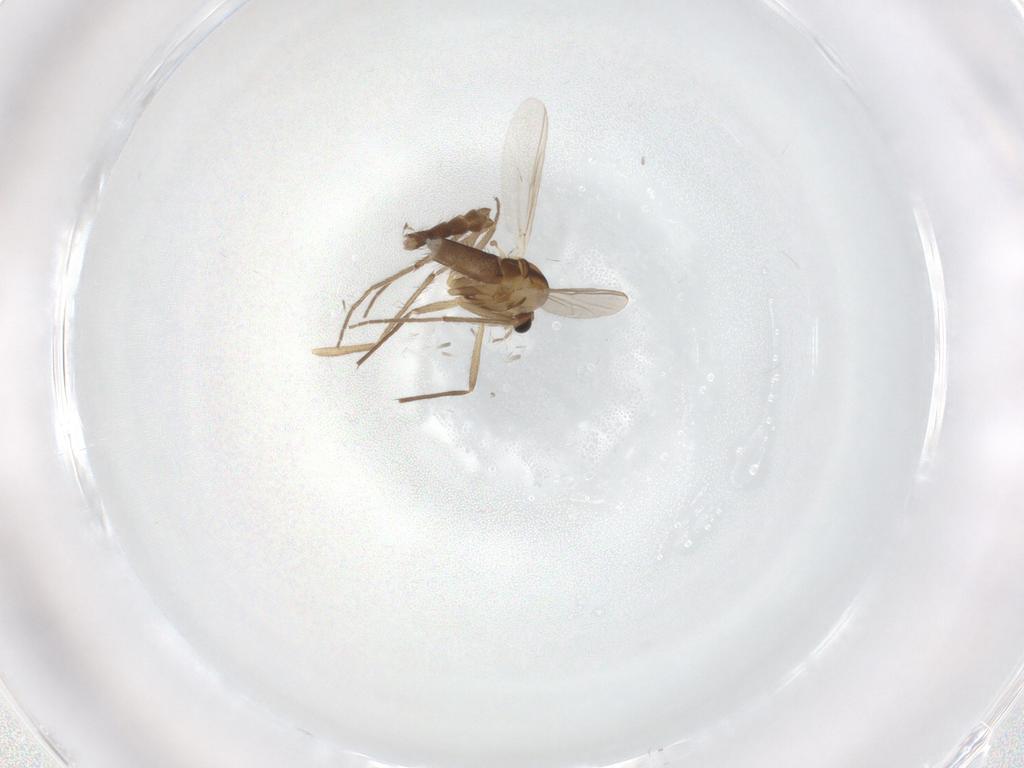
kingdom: Animalia
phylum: Arthropoda
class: Insecta
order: Diptera
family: Chironomidae
